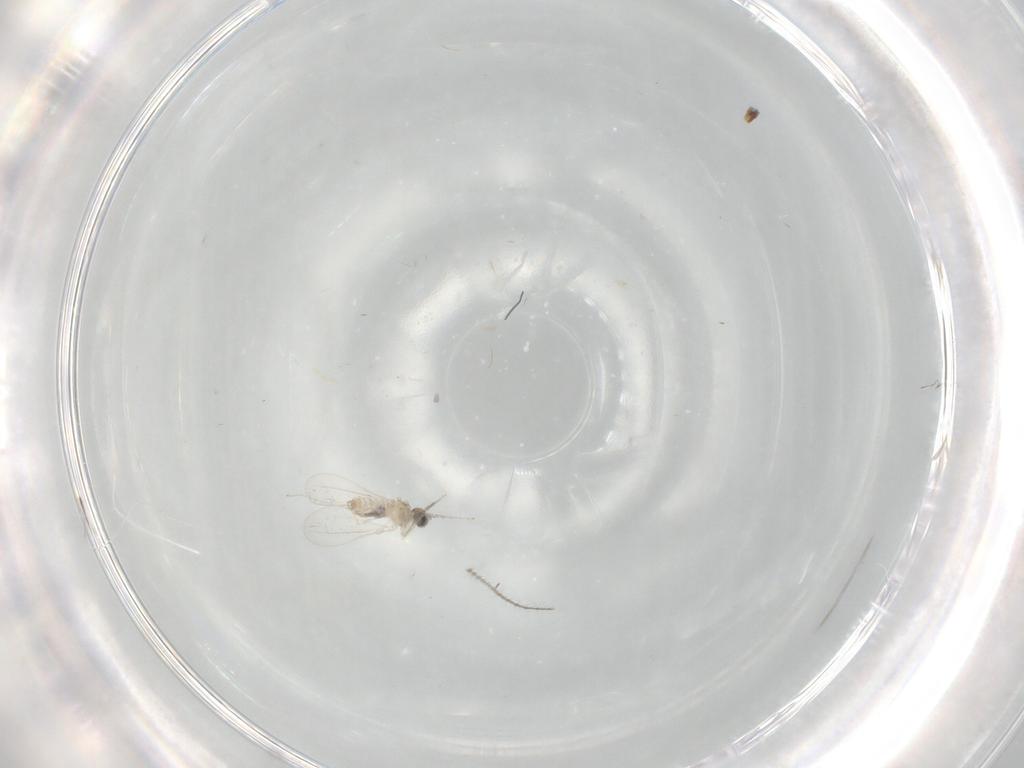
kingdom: Animalia
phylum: Arthropoda
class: Insecta
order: Diptera
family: Cecidomyiidae
